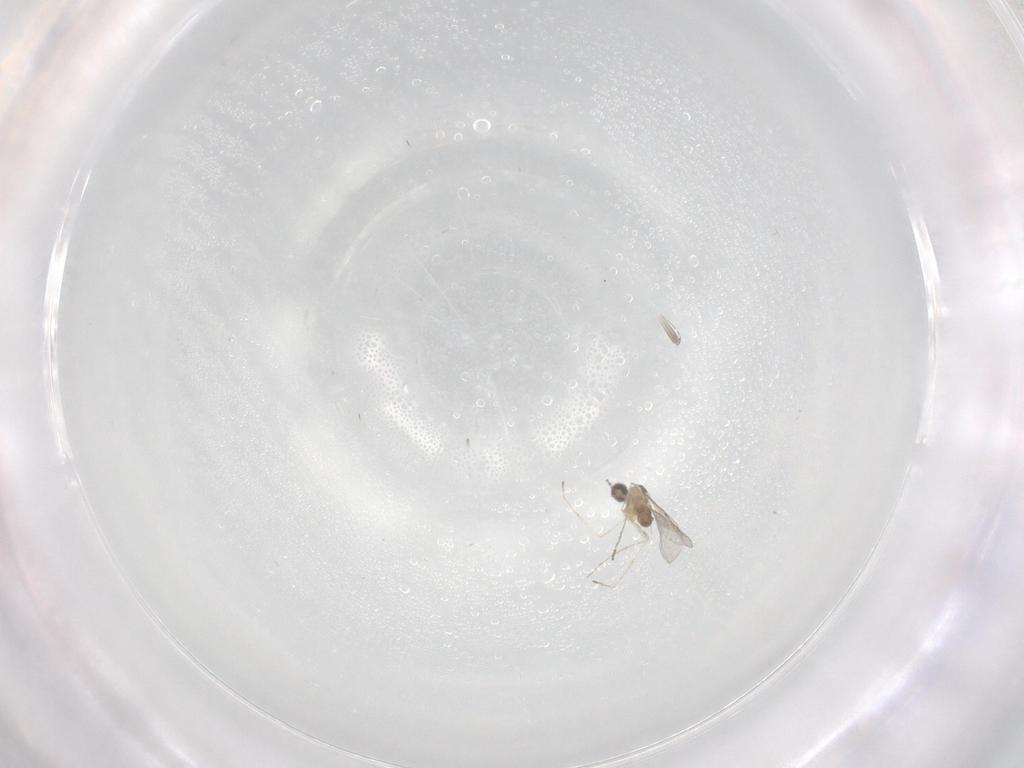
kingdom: Animalia
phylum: Arthropoda
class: Insecta
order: Diptera
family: Cecidomyiidae
